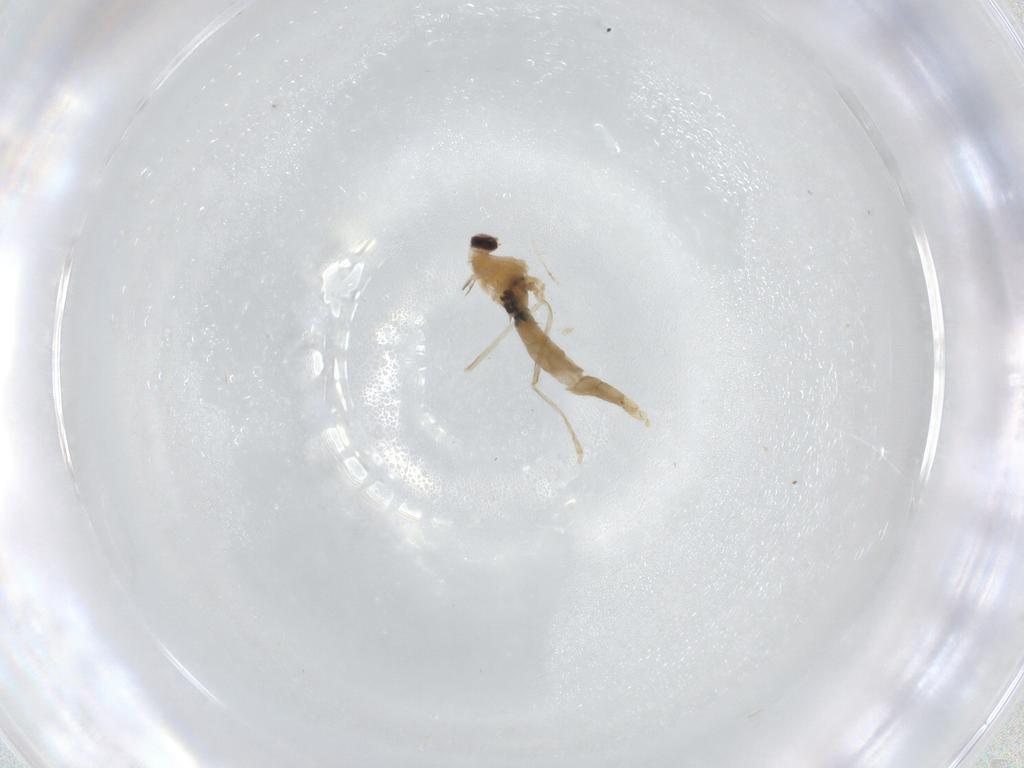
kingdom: Animalia
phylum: Arthropoda
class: Insecta
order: Diptera
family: Cecidomyiidae
